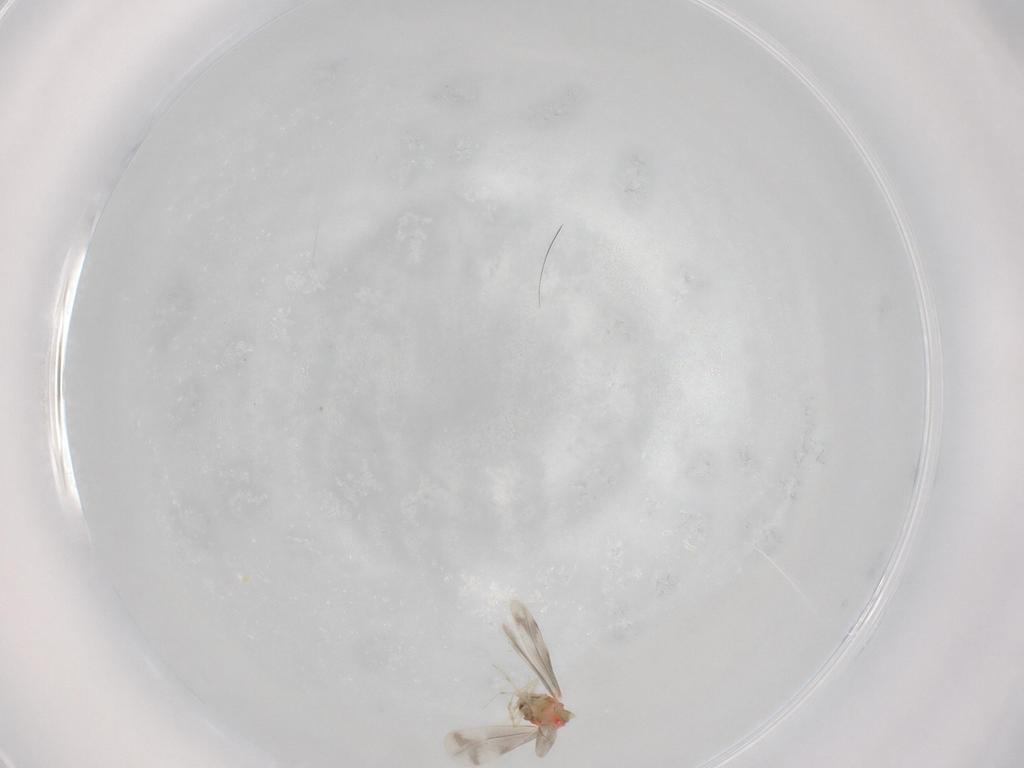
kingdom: Animalia
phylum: Arthropoda
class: Insecta
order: Hemiptera
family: Aleyrodidae
